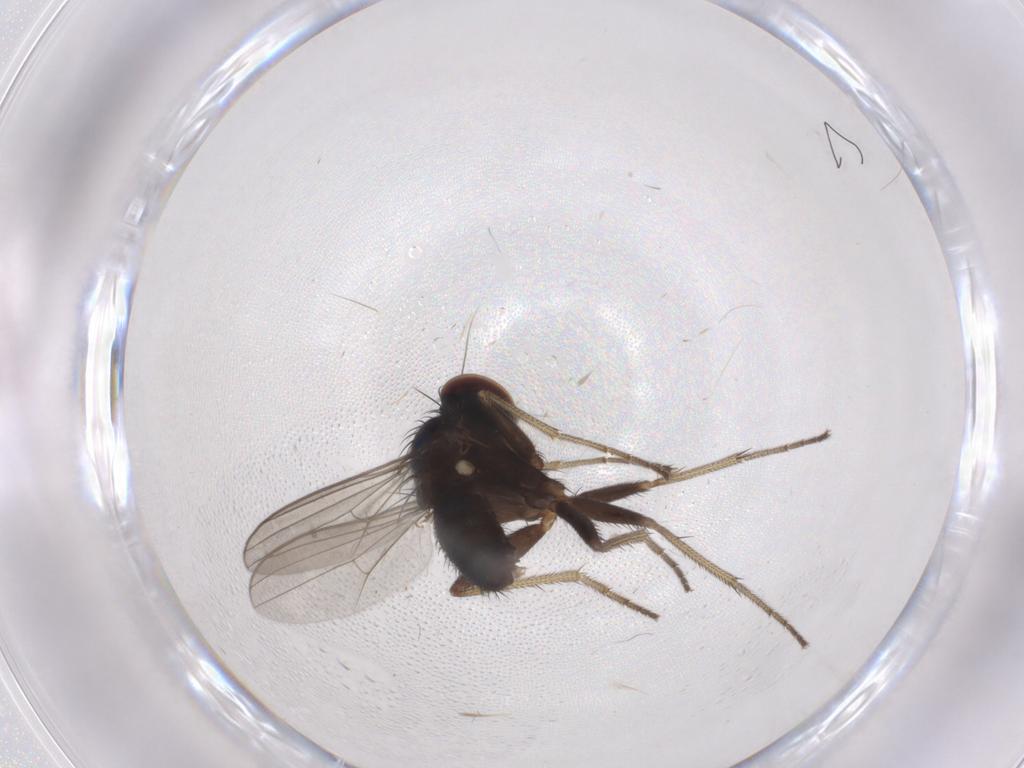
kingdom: Animalia
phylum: Arthropoda
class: Insecta
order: Diptera
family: Dolichopodidae
